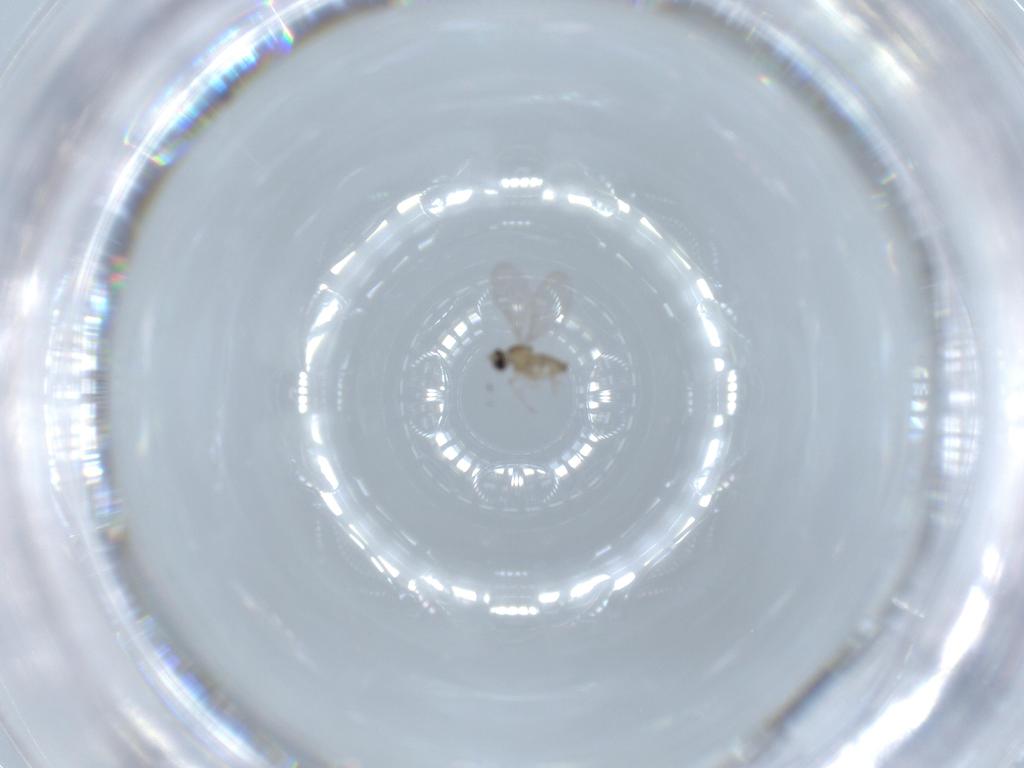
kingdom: Animalia
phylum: Arthropoda
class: Insecta
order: Diptera
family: Cecidomyiidae
